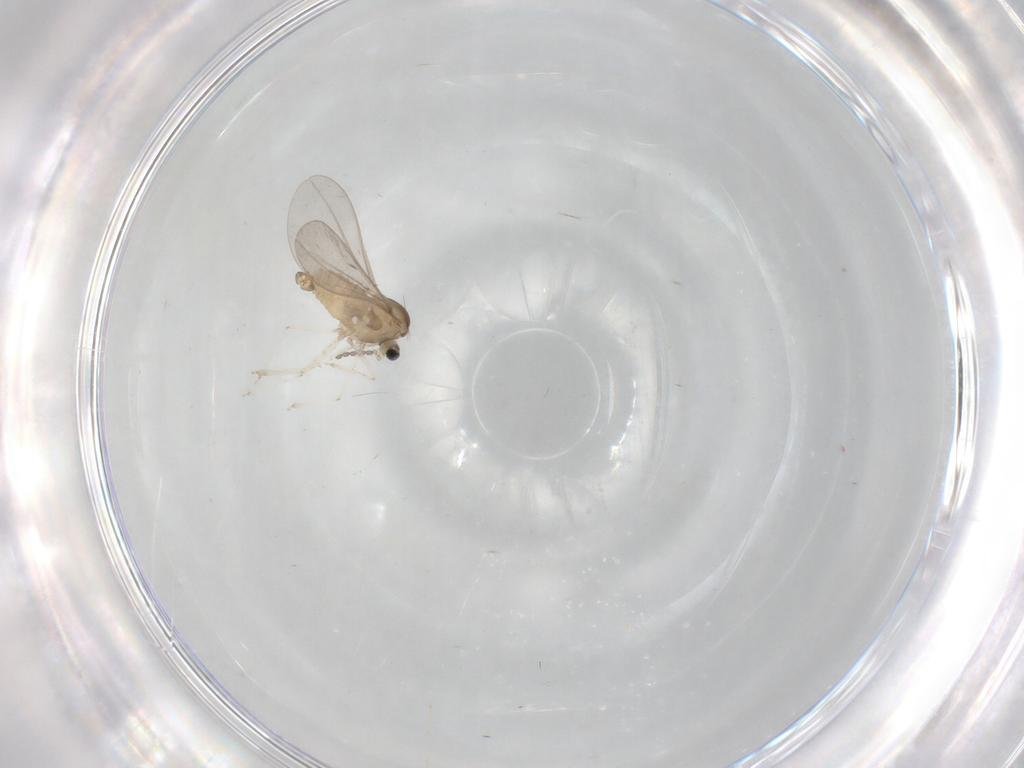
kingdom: Animalia
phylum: Arthropoda
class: Insecta
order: Diptera
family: Cecidomyiidae
